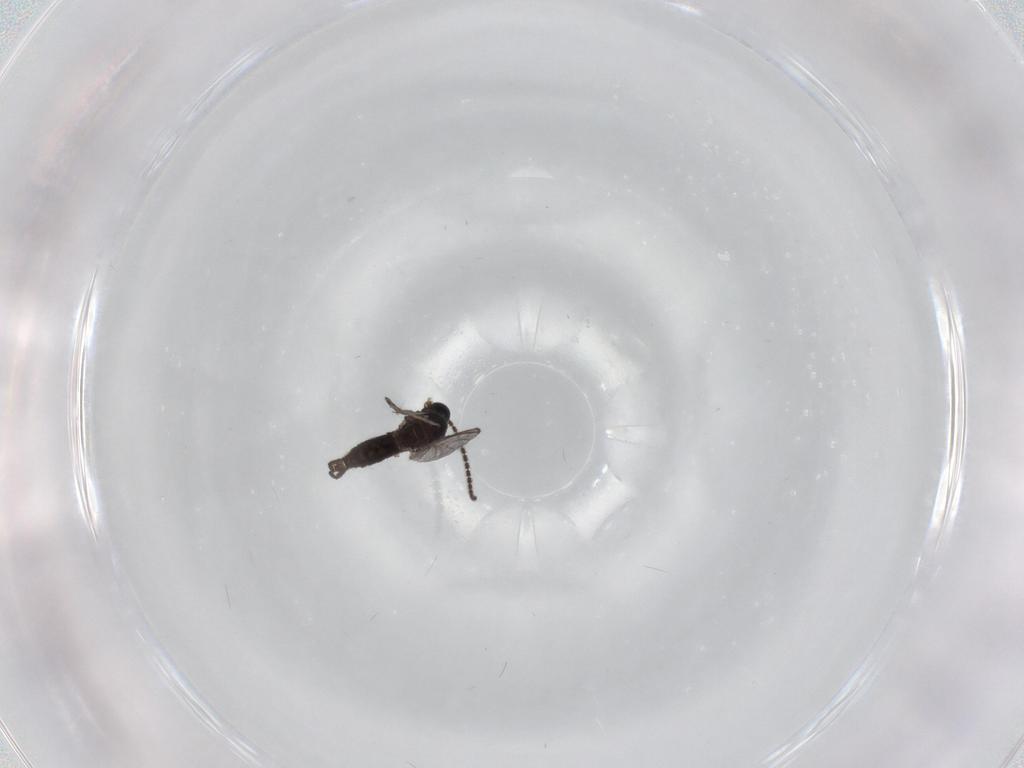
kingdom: Animalia
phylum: Arthropoda
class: Insecta
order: Diptera
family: Sciaridae
